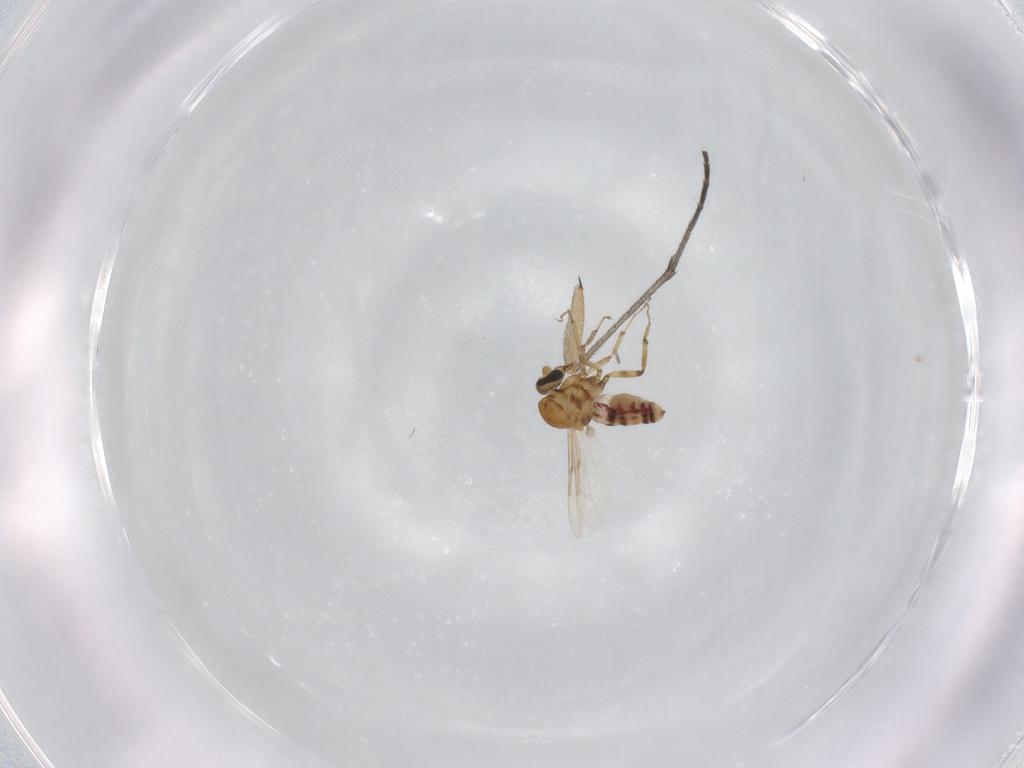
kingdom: Animalia
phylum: Arthropoda
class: Insecta
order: Diptera
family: Ceratopogonidae
